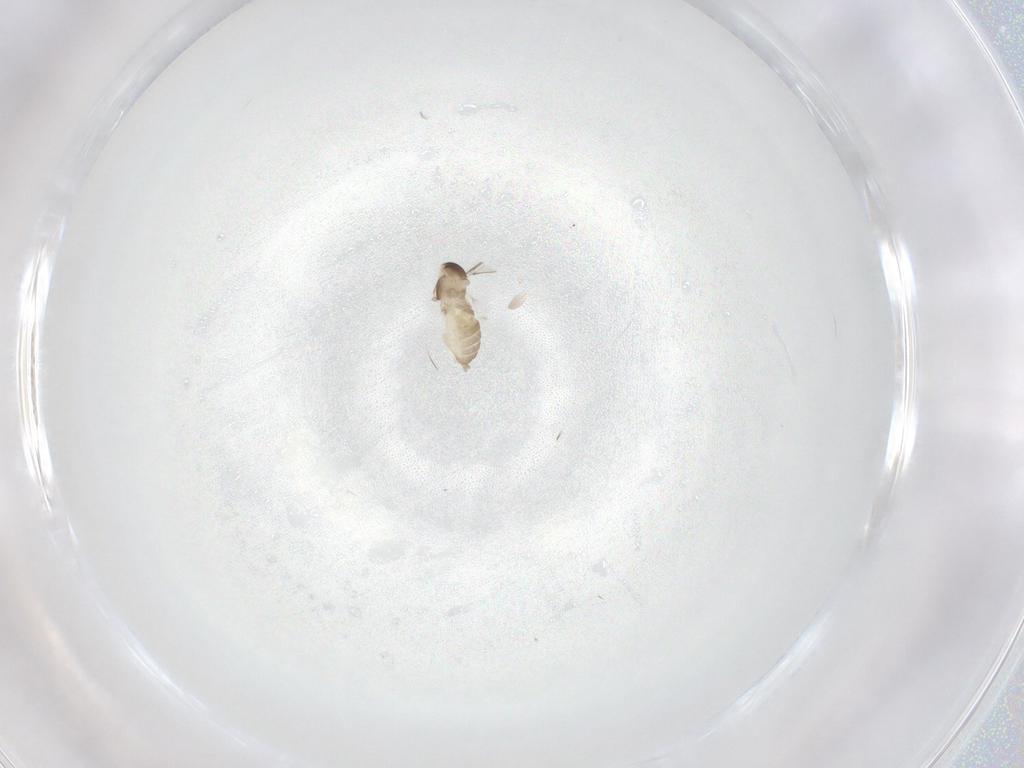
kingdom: Animalia
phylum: Arthropoda
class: Insecta
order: Diptera
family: Cecidomyiidae
